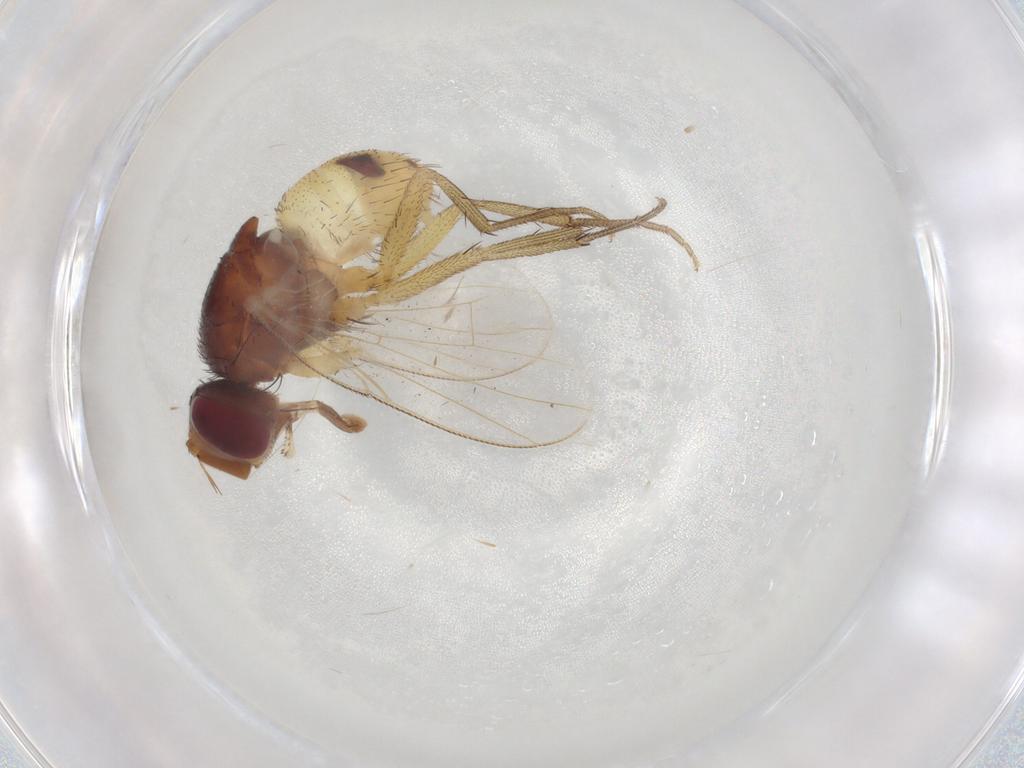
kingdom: Animalia
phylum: Arthropoda
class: Insecta
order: Diptera
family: Muscidae
